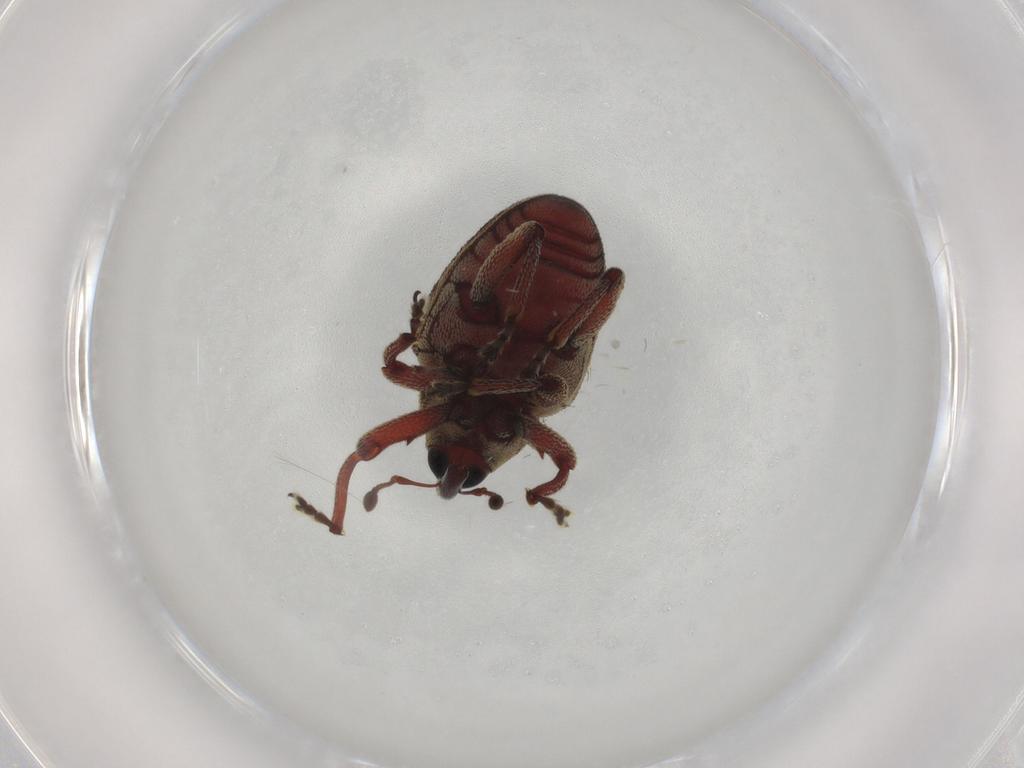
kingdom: Animalia
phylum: Arthropoda
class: Insecta
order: Coleoptera
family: Curculionidae
